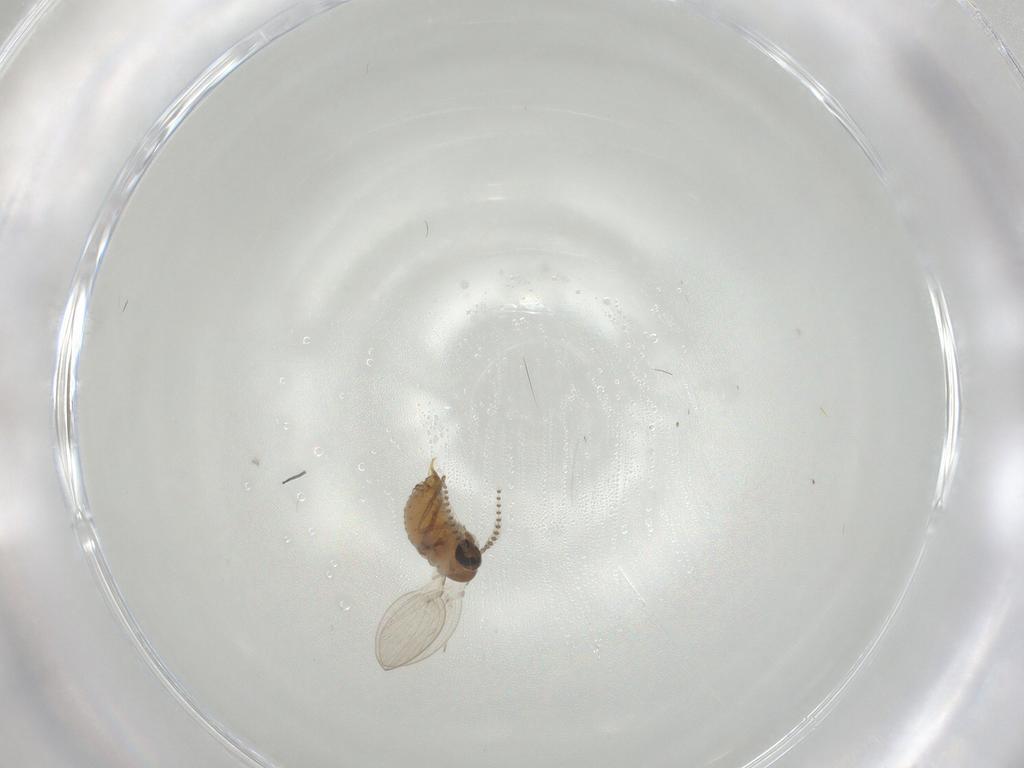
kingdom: Animalia
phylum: Arthropoda
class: Insecta
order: Diptera
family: Psychodidae
